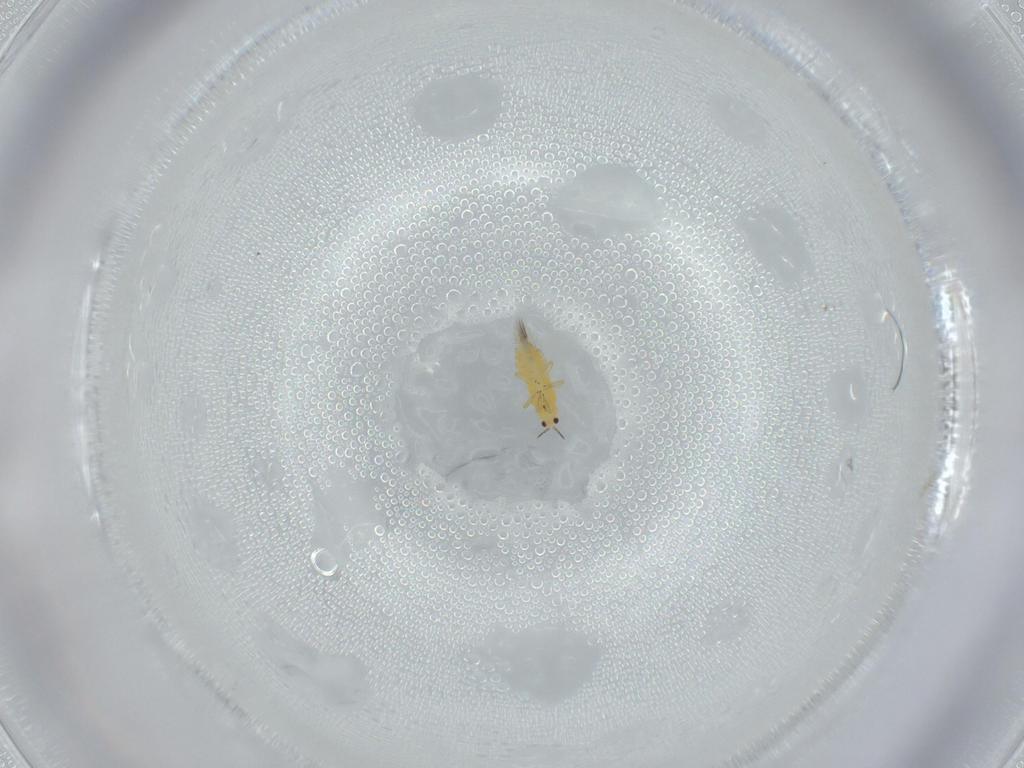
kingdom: Animalia
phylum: Arthropoda
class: Insecta
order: Thysanoptera
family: Thripidae
